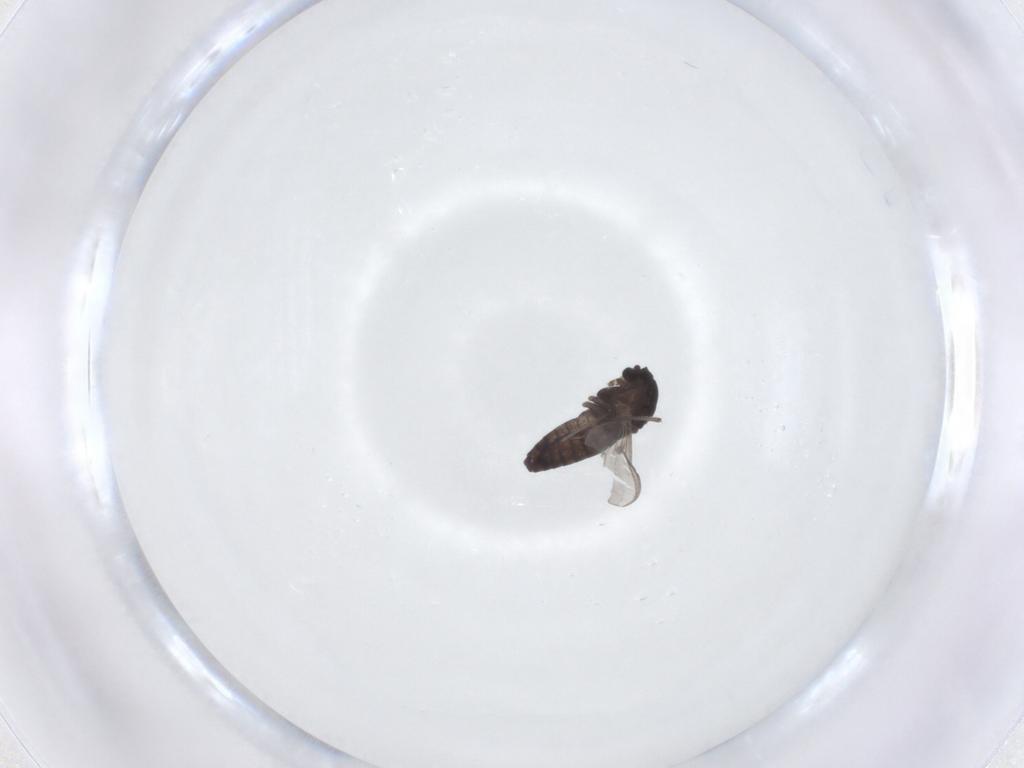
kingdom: Animalia
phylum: Arthropoda
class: Insecta
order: Diptera
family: Chironomidae
